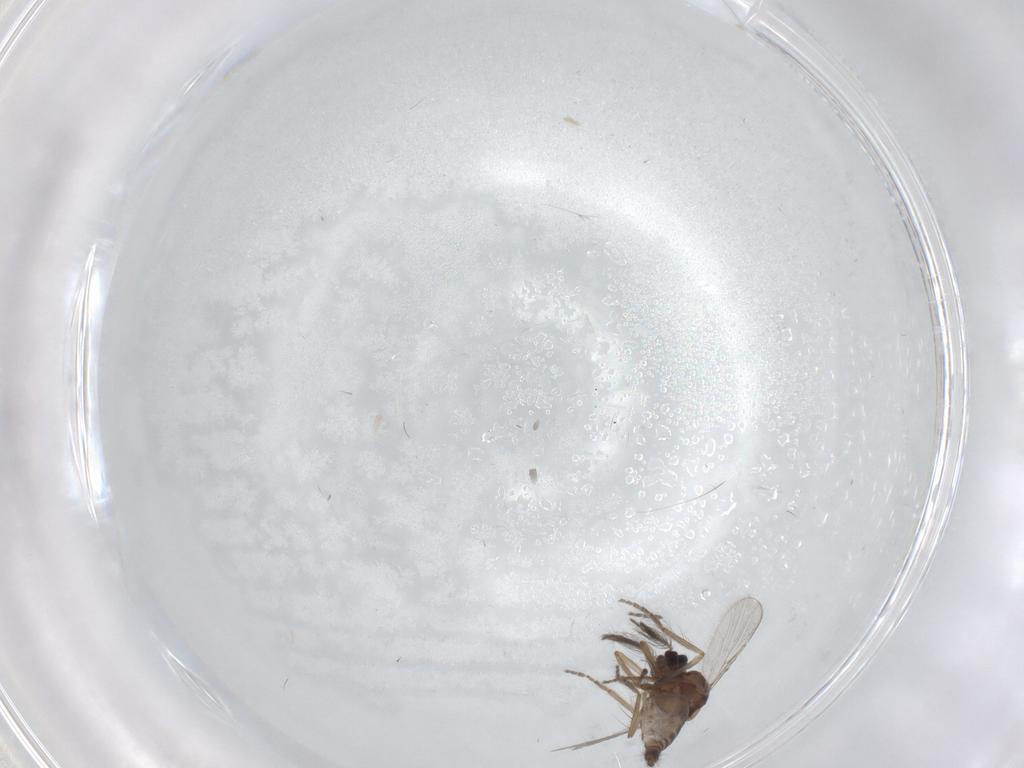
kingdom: Animalia
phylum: Arthropoda
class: Insecta
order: Diptera
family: Ceratopogonidae
